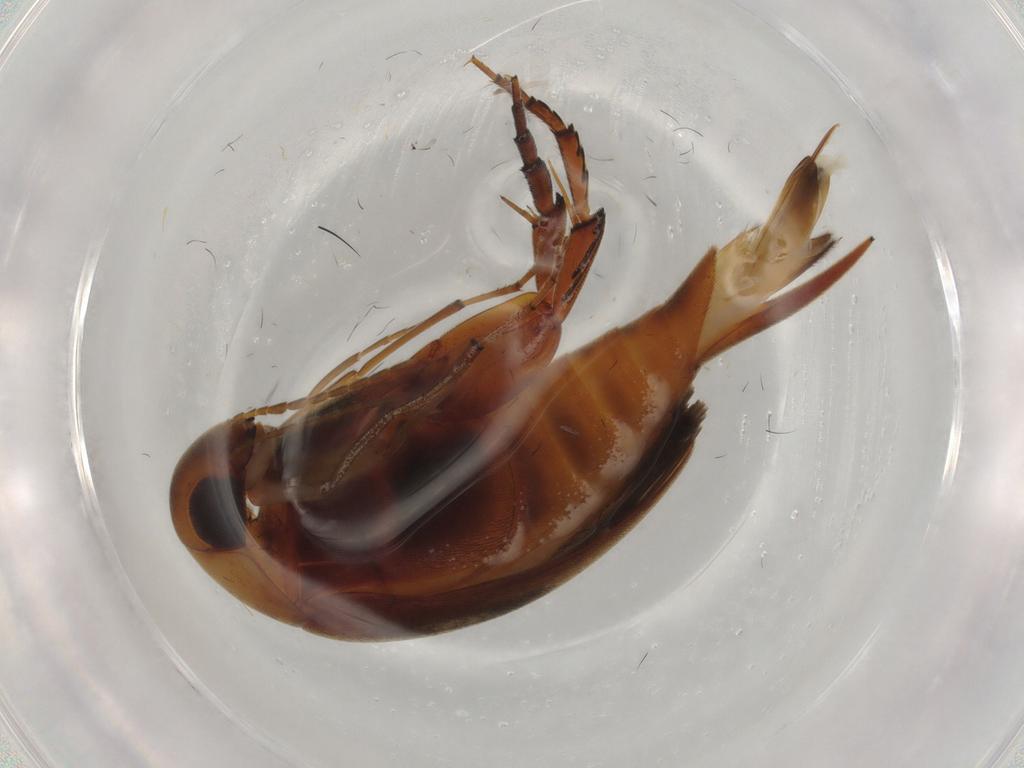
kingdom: Animalia
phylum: Arthropoda
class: Insecta
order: Coleoptera
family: Mordellidae
